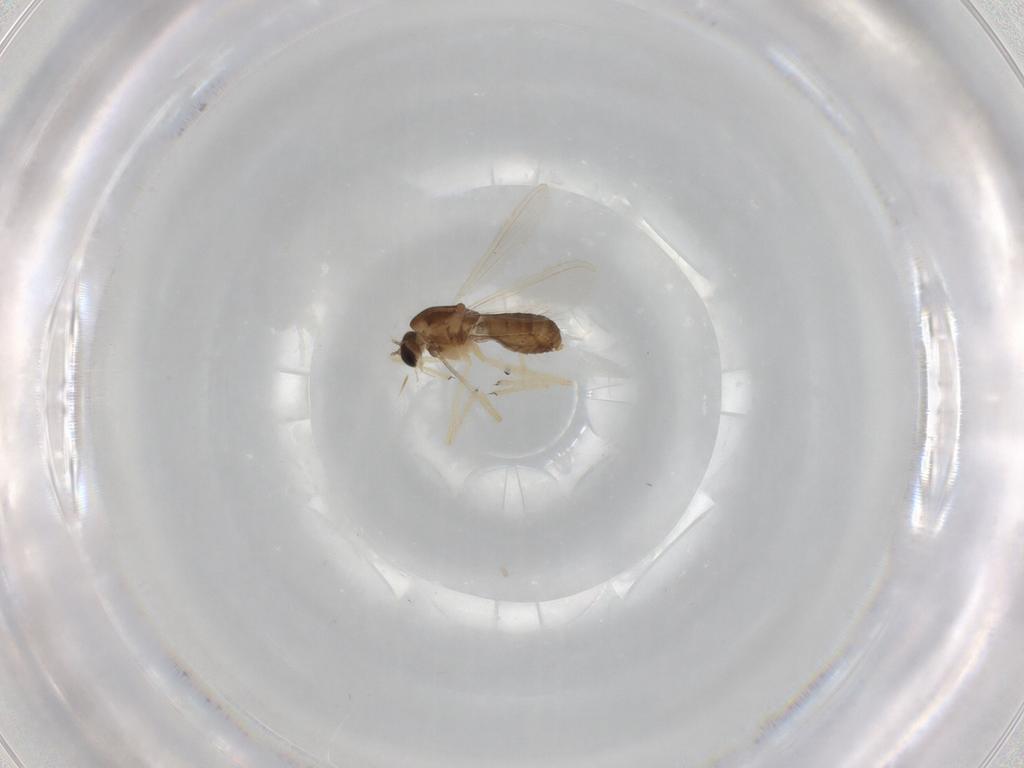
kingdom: Animalia
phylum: Arthropoda
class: Insecta
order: Diptera
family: Chironomidae
